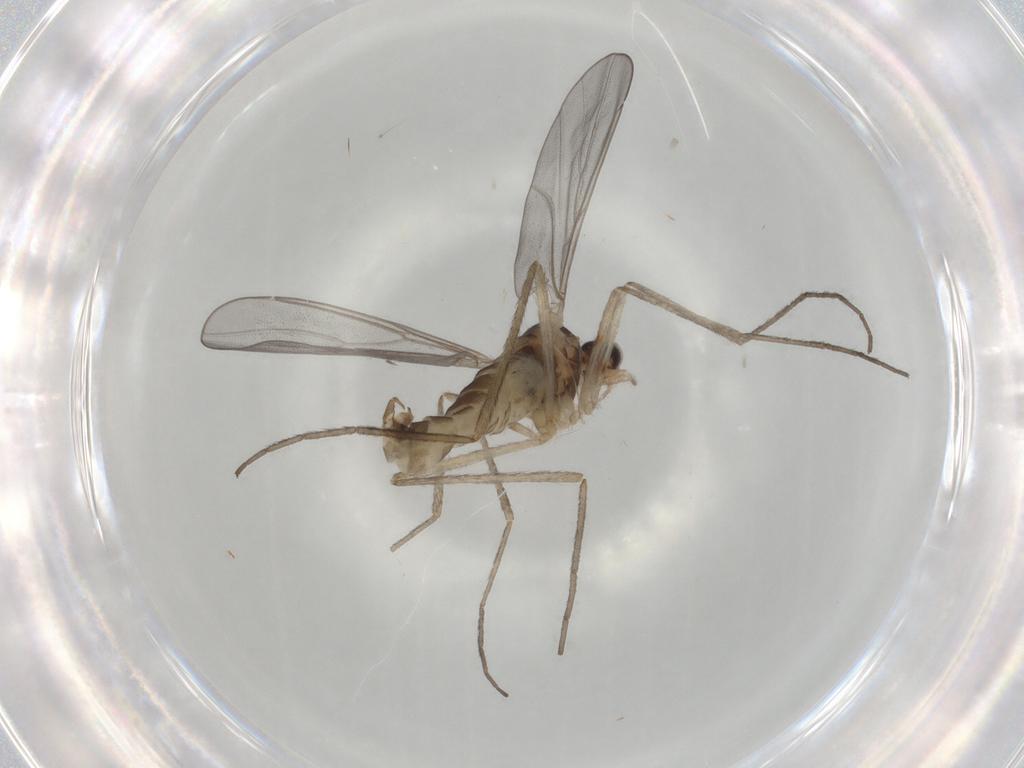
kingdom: Animalia
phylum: Arthropoda
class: Insecta
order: Diptera
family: Cecidomyiidae
